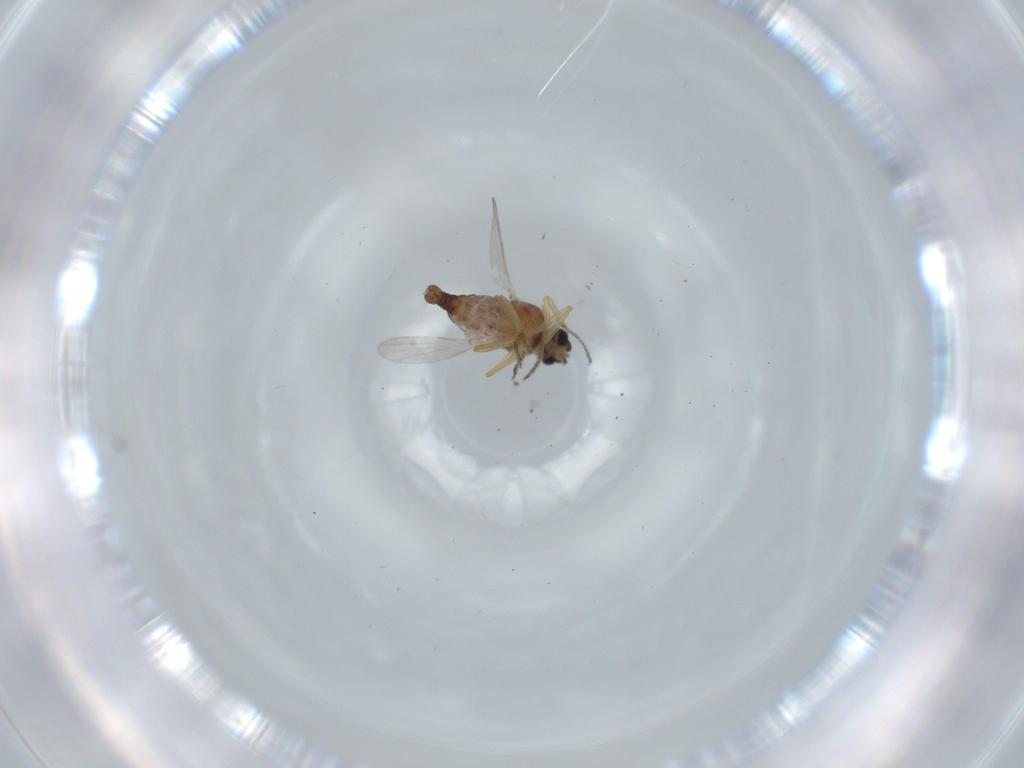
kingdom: Animalia
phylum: Arthropoda
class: Insecta
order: Diptera
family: Ceratopogonidae
